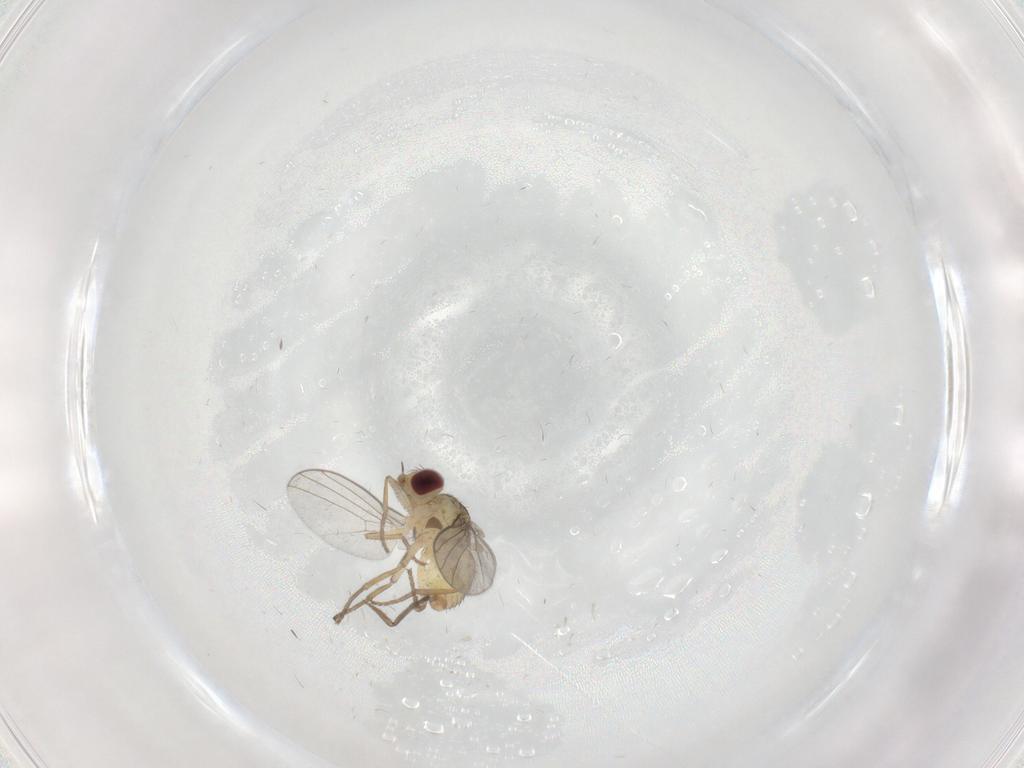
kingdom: Animalia
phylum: Arthropoda
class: Insecta
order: Diptera
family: Agromyzidae
